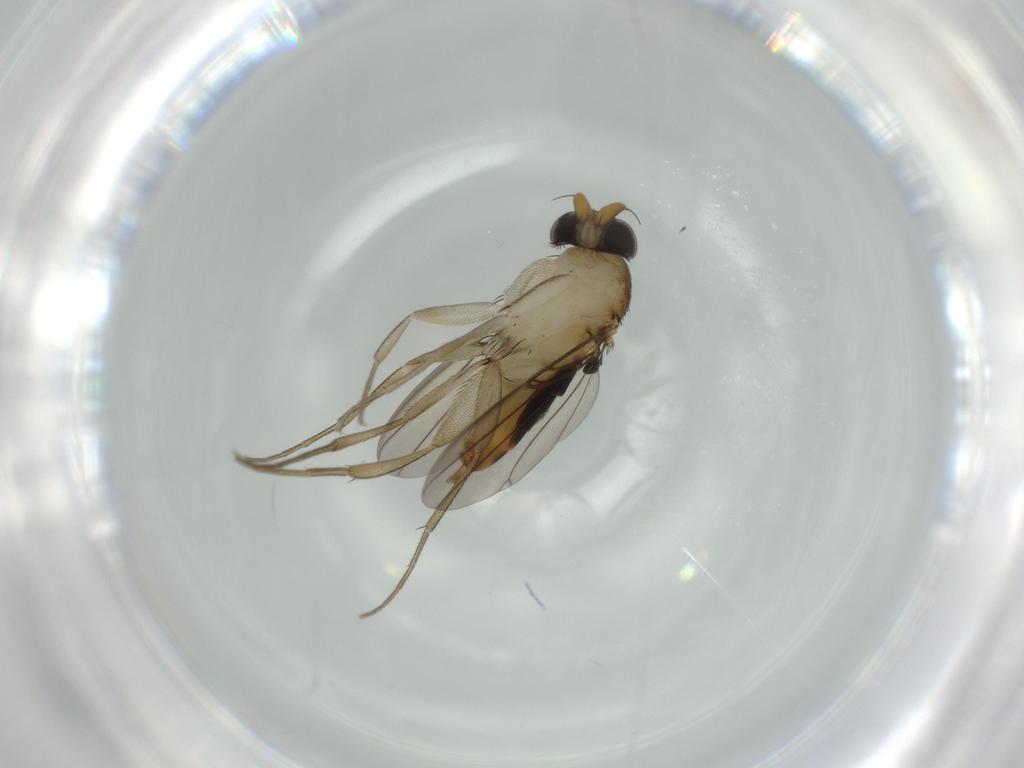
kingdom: Animalia
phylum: Arthropoda
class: Insecta
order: Diptera
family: Phoridae
